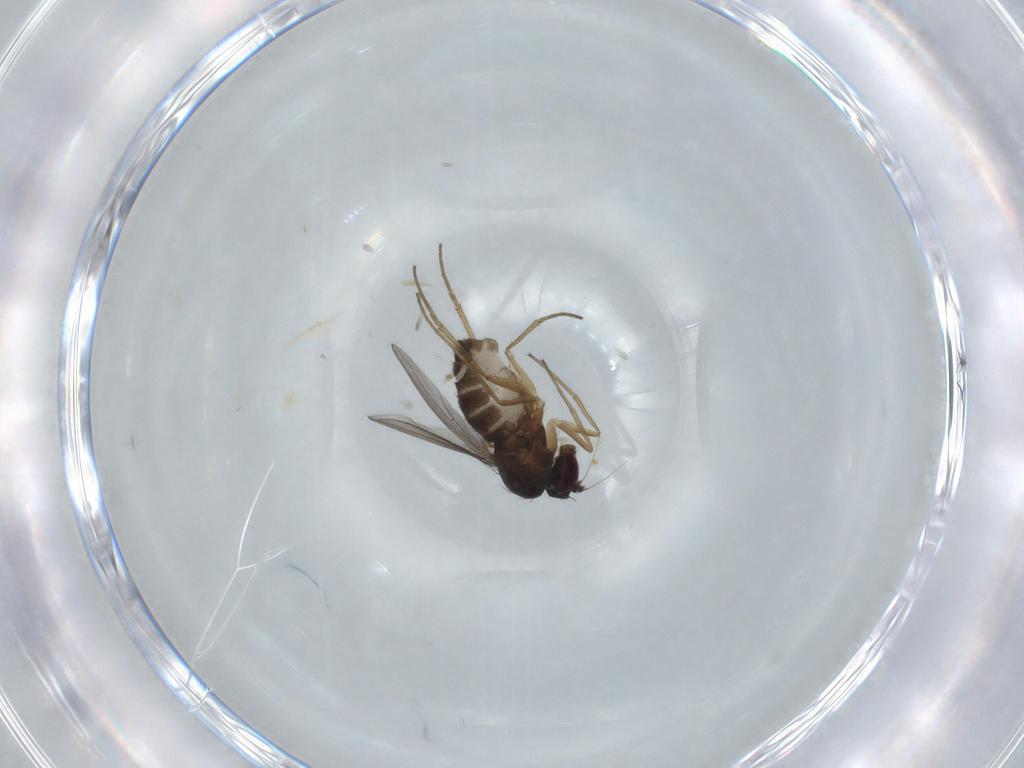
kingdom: Animalia
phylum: Arthropoda
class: Insecta
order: Diptera
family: Dolichopodidae
